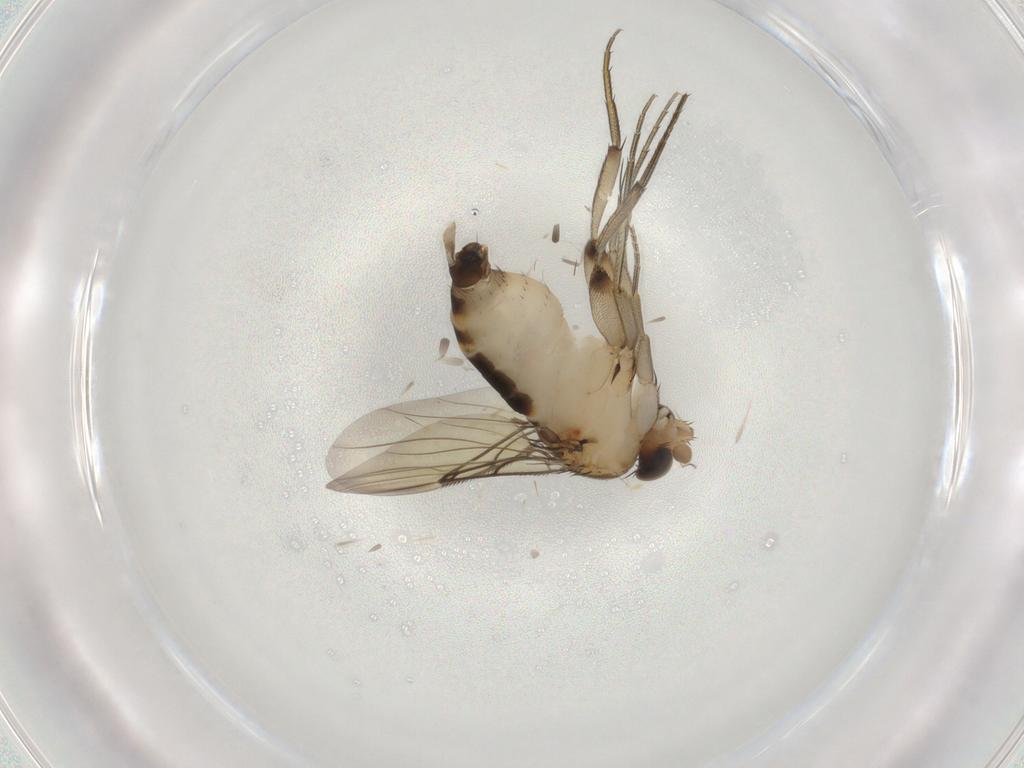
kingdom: Animalia
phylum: Arthropoda
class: Insecta
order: Diptera
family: Phoridae
